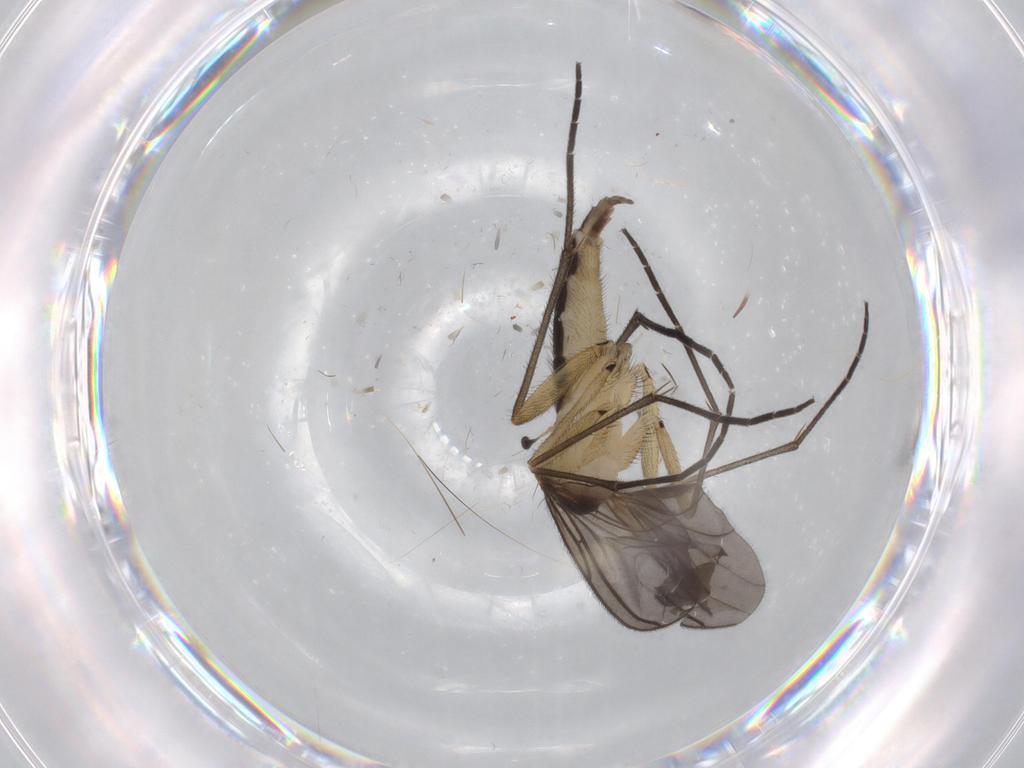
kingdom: Animalia
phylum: Arthropoda
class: Insecta
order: Diptera
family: Sciaridae
